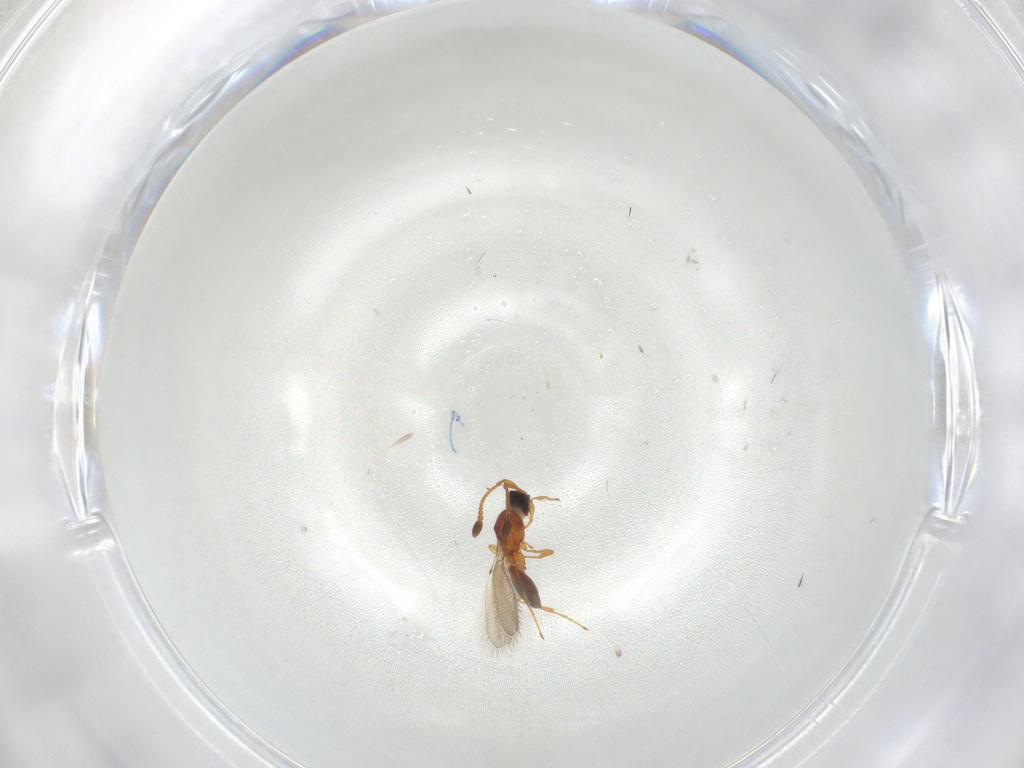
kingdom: Animalia
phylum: Arthropoda
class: Insecta
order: Hymenoptera
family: Diapriidae
